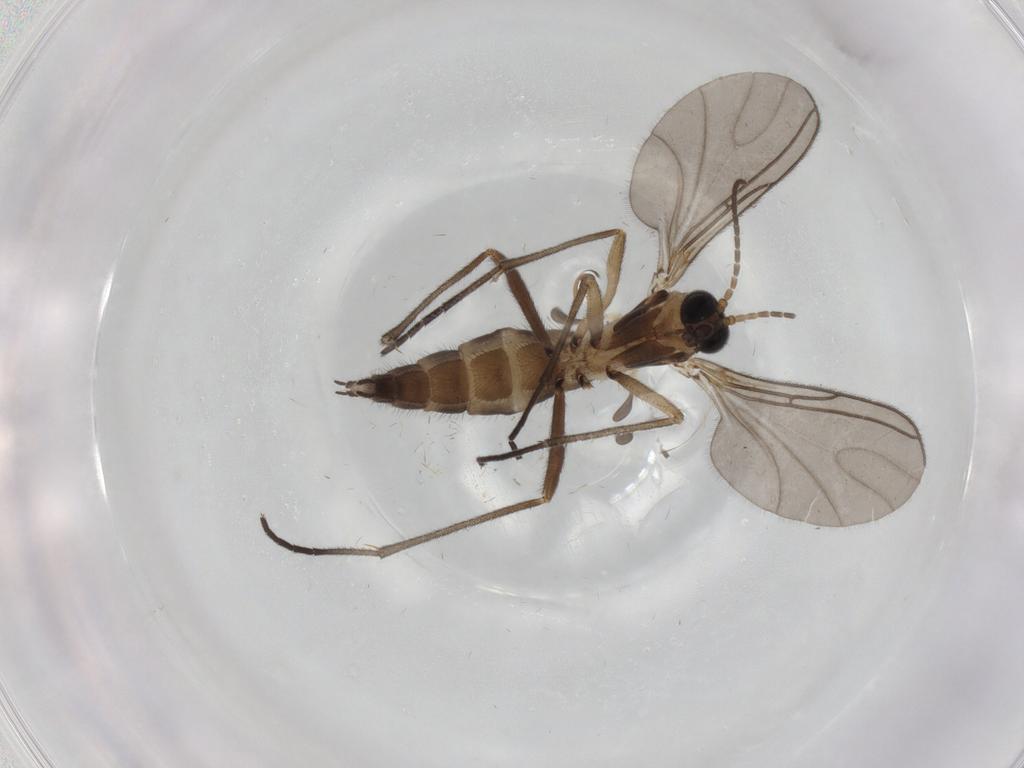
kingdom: Animalia
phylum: Arthropoda
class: Insecta
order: Diptera
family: Sciaridae
